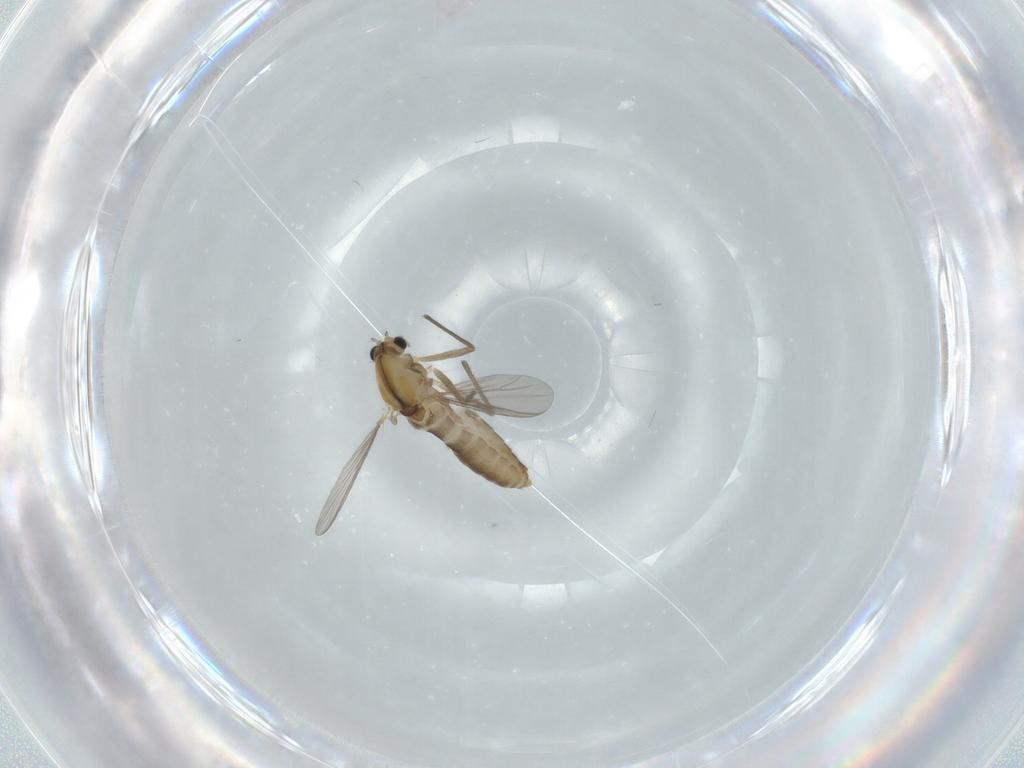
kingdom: Animalia
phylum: Arthropoda
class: Insecta
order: Diptera
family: Chironomidae
